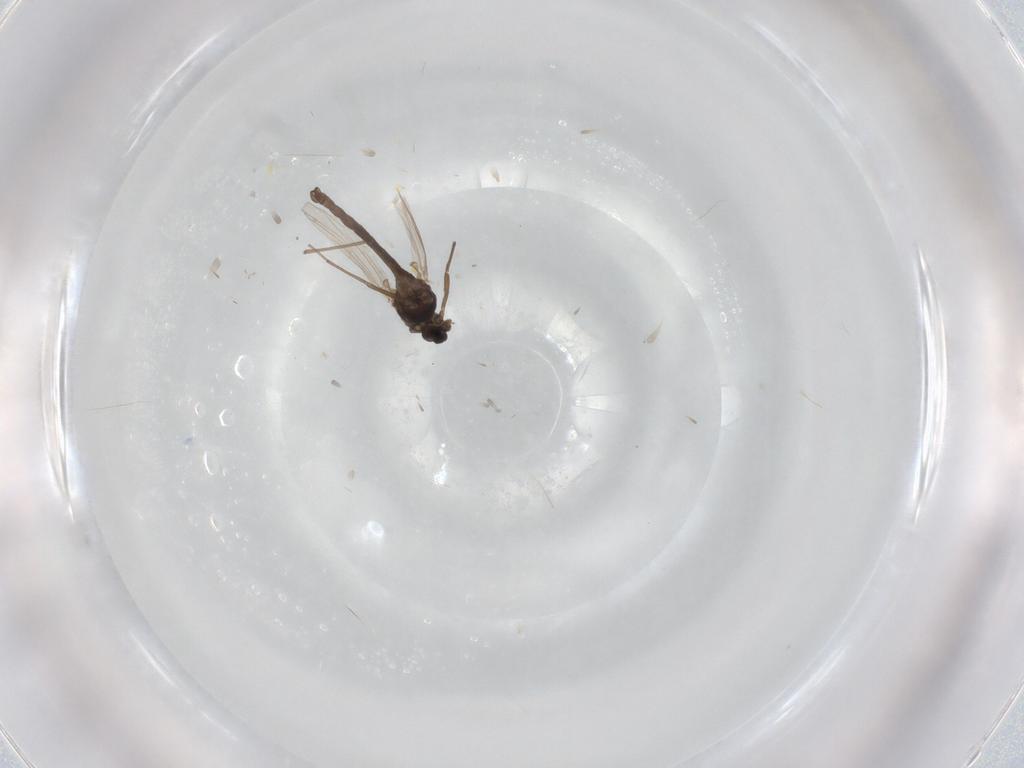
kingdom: Animalia
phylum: Arthropoda
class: Insecta
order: Diptera
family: Chironomidae
